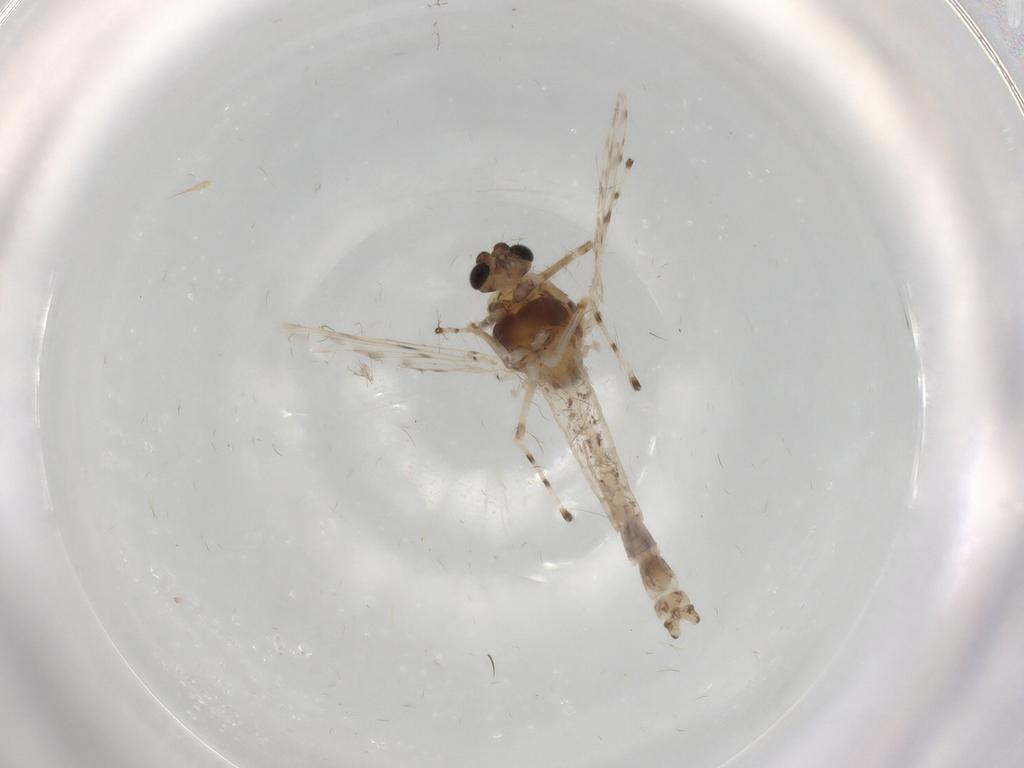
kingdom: Animalia
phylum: Arthropoda
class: Insecta
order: Diptera
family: Chironomidae
